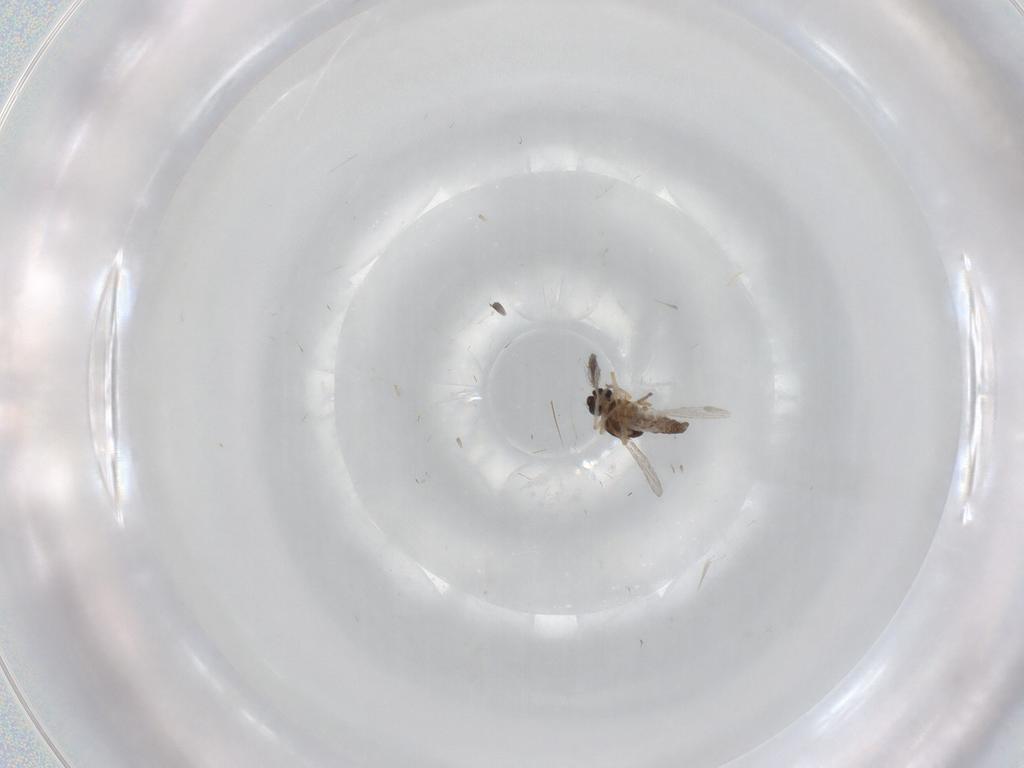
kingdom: Animalia
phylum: Arthropoda
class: Insecta
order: Diptera
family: Ceratopogonidae
